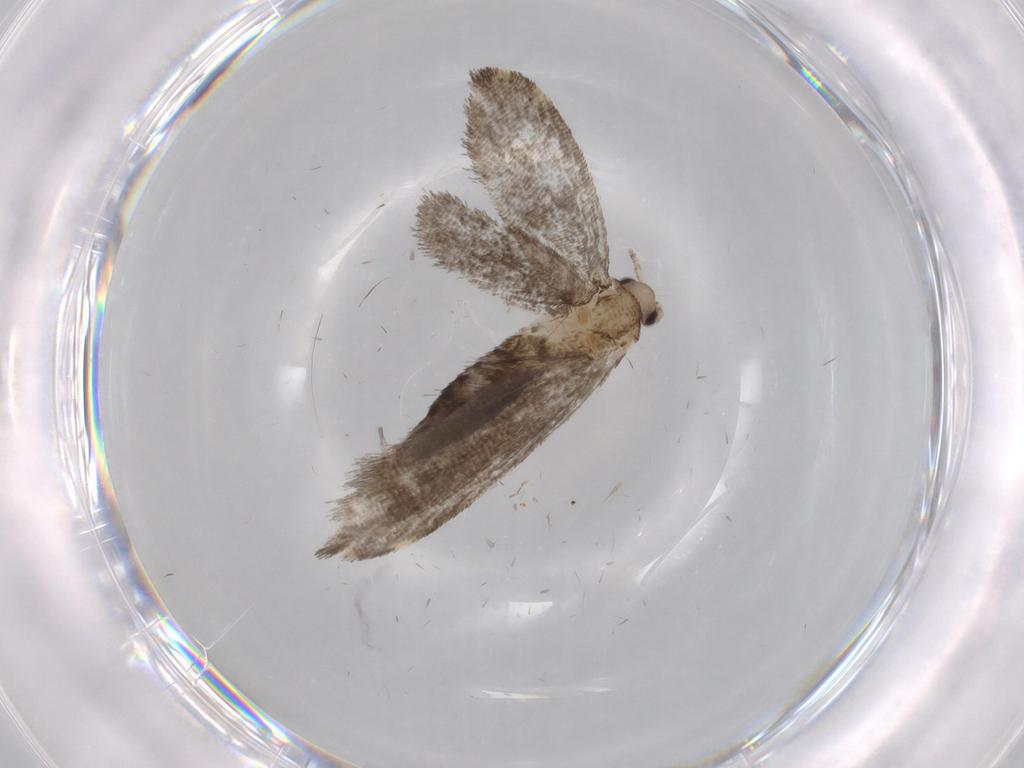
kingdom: Animalia
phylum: Arthropoda
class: Insecta
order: Lepidoptera
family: Nepticulidae
